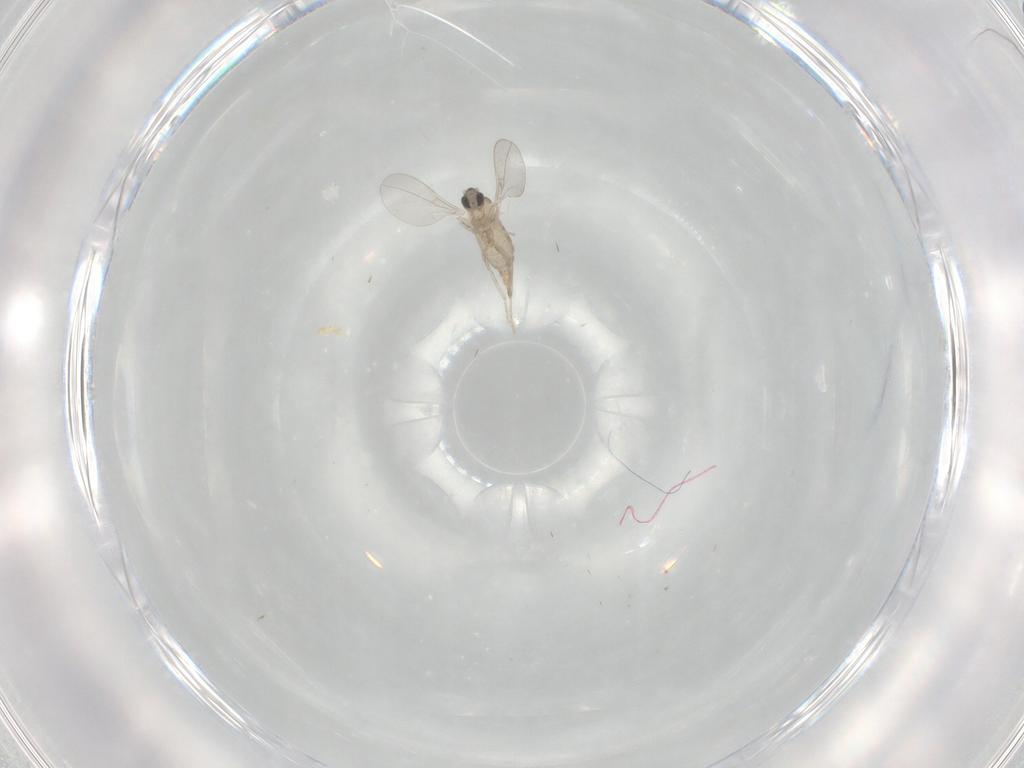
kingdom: Animalia
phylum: Arthropoda
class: Insecta
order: Diptera
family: Cecidomyiidae
